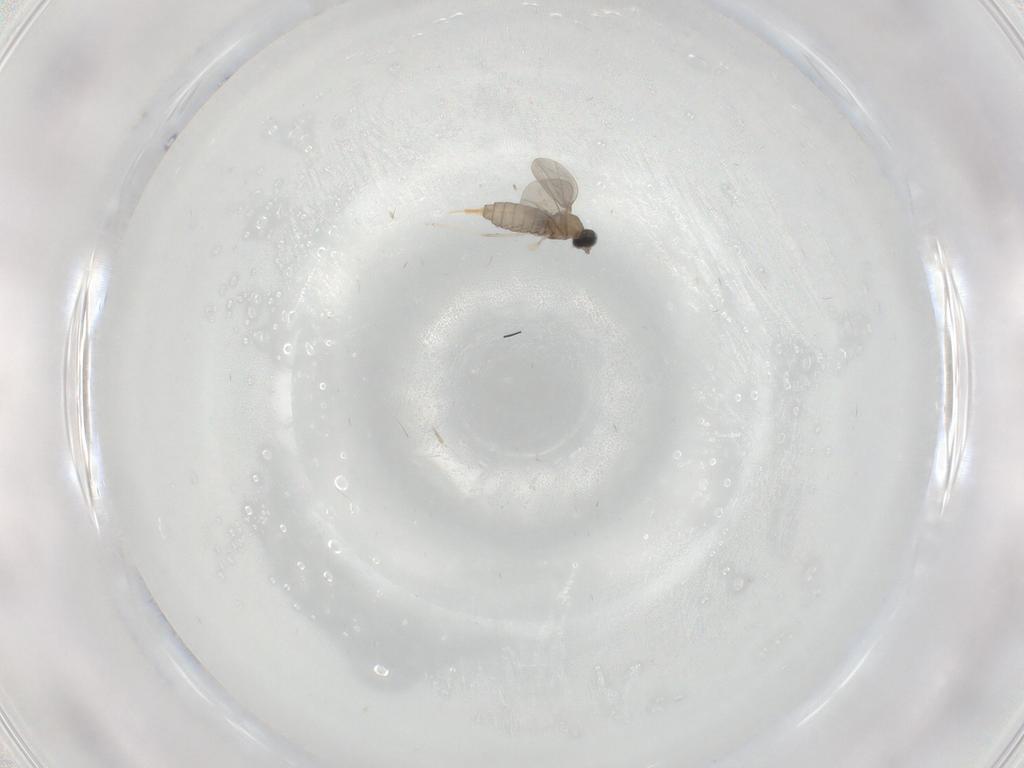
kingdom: Animalia
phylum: Arthropoda
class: Insecta
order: Diptera
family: Cecidomyiidae
